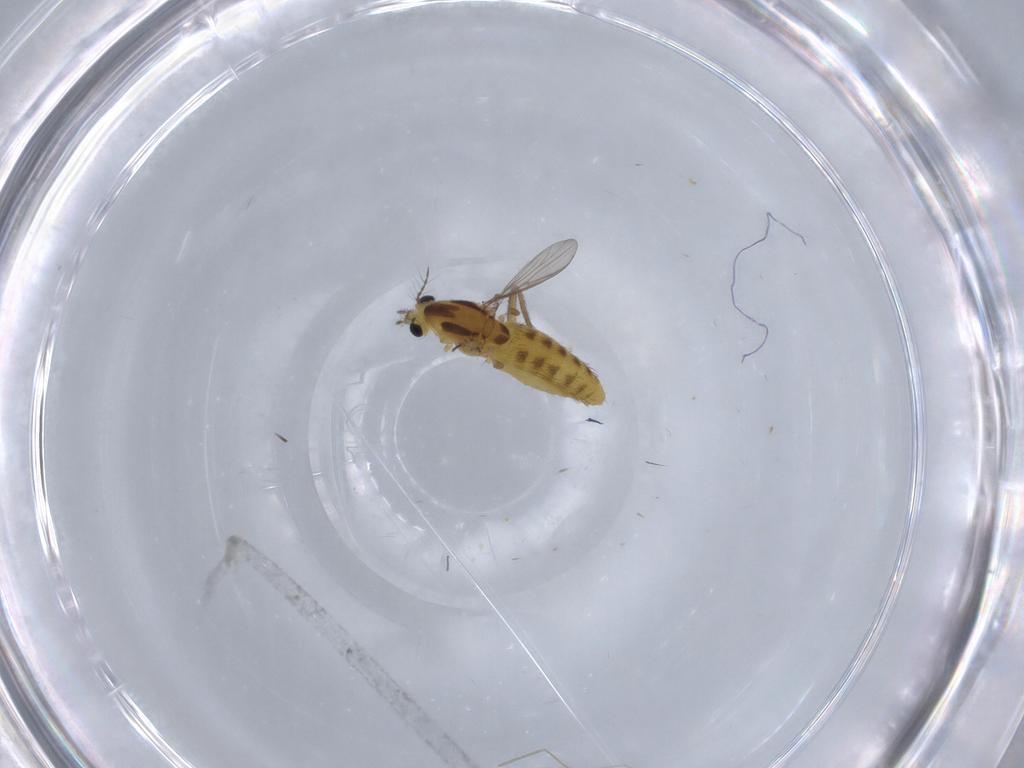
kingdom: Animalia
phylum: Arthropoda
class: Insecta
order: Diptera
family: Chironomidae
